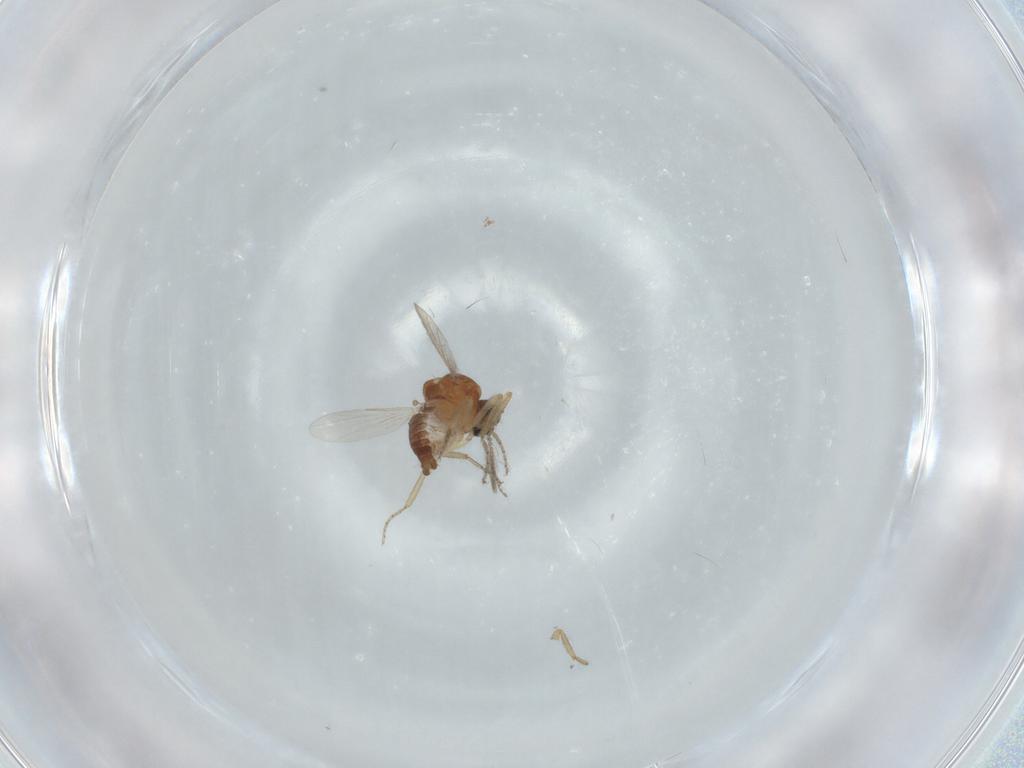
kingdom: Animalia
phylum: Arthropoda
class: Insecta
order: Diptera
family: Ceratopogonidae
